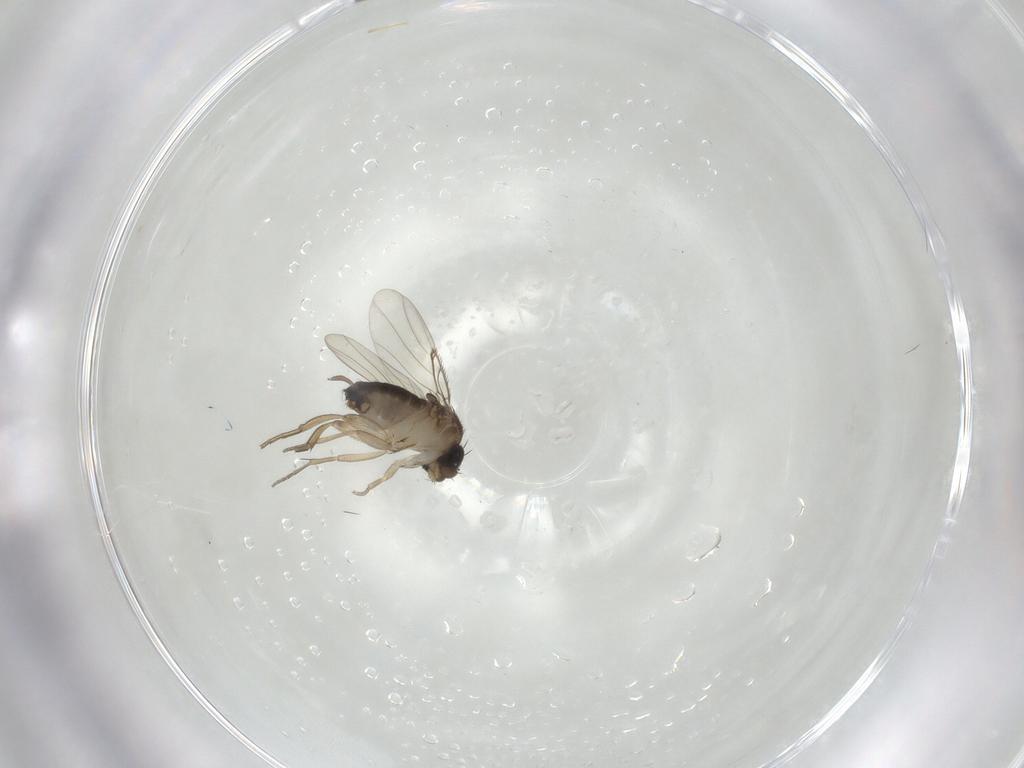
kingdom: Animalia
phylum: Arthropoda
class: Insecta
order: Diptera
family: Phoridae
